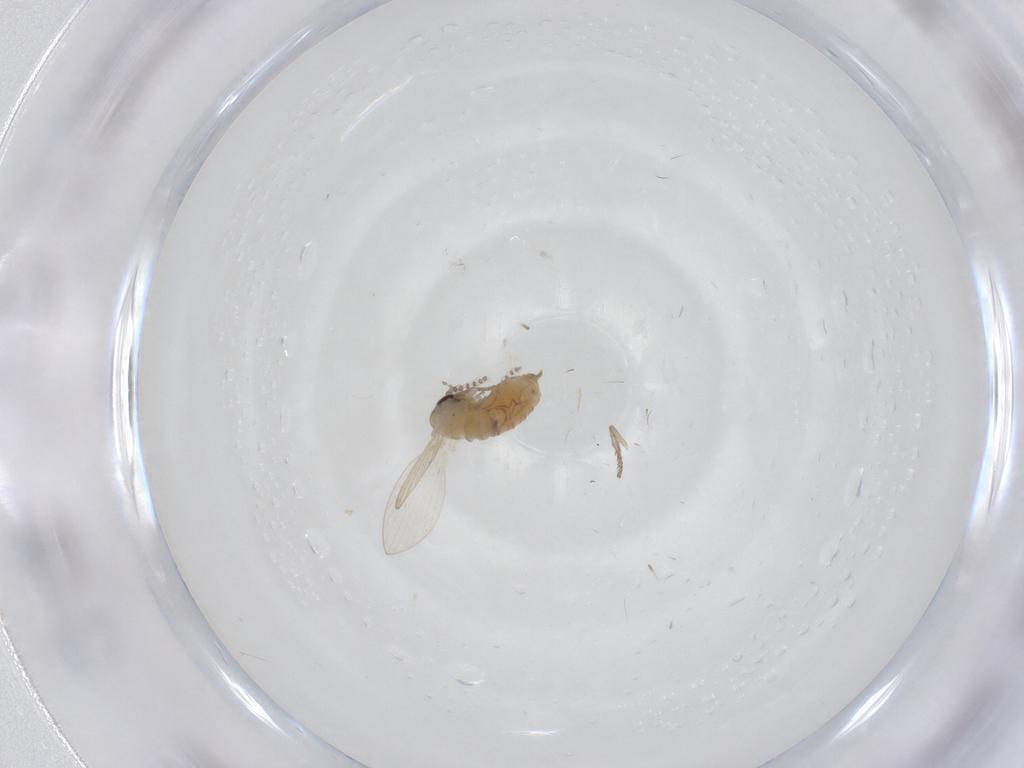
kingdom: Animalia
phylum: Arthropoda
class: Insecta
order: Diptera
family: Psychodidae
